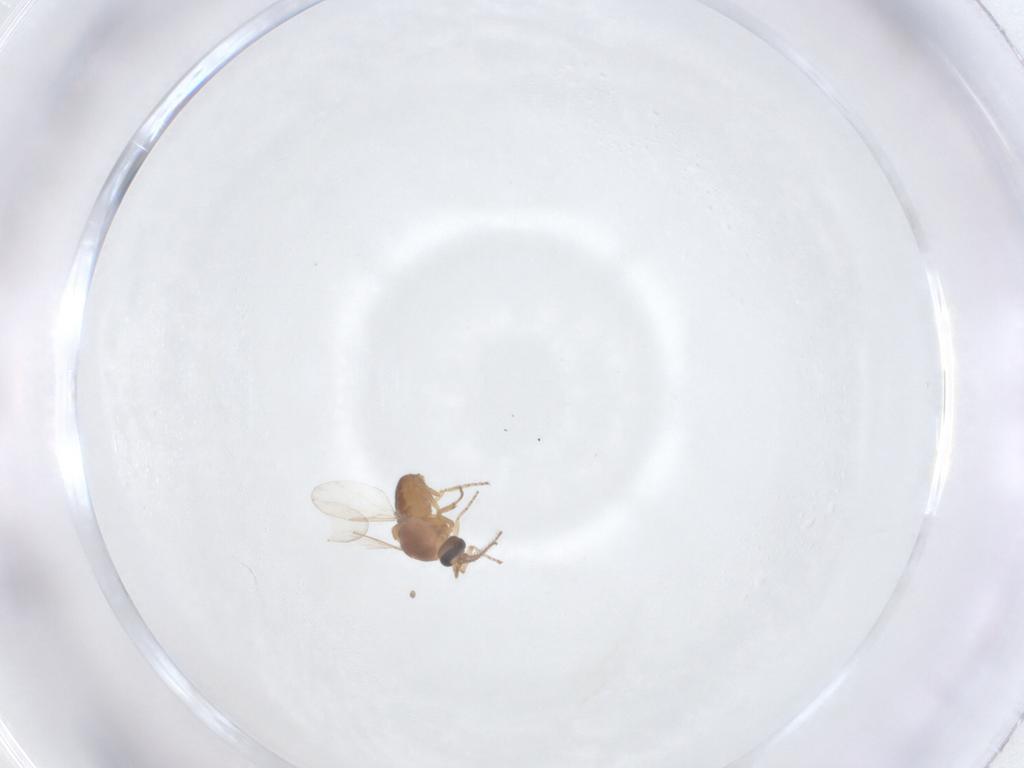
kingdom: Animalia
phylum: Arthropoda
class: Insecta
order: Diptera
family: Ceratopogonidae
